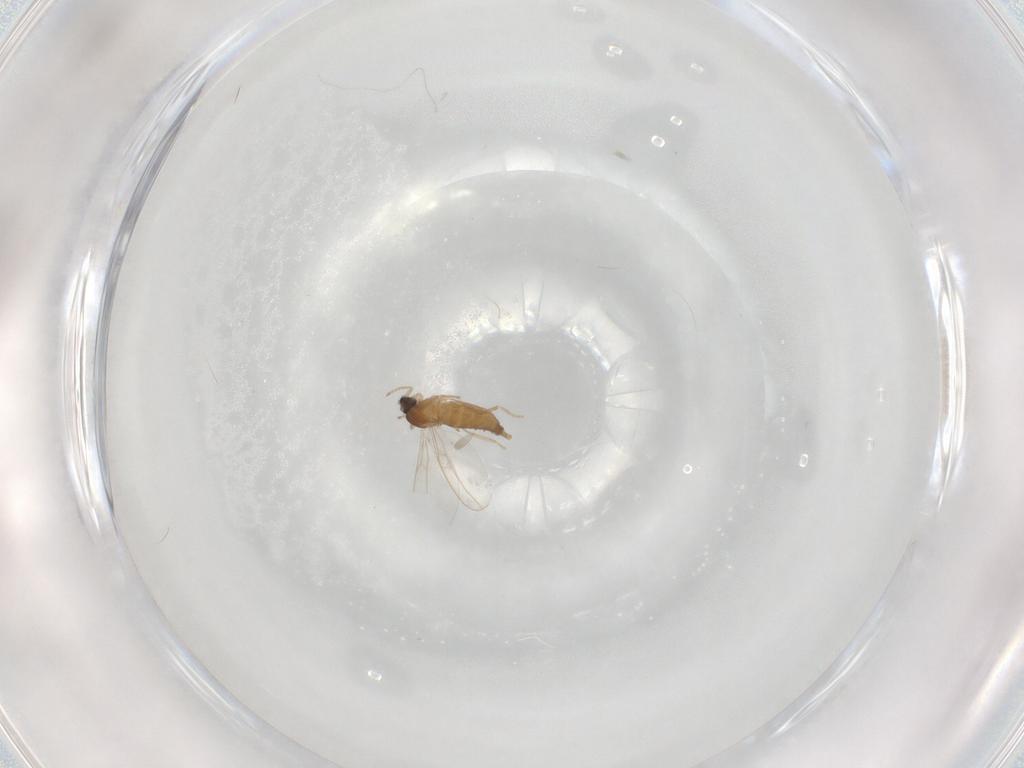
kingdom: Animalia
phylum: Arthropoda
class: Insecta
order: Diptera
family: Cecidomyiidae
